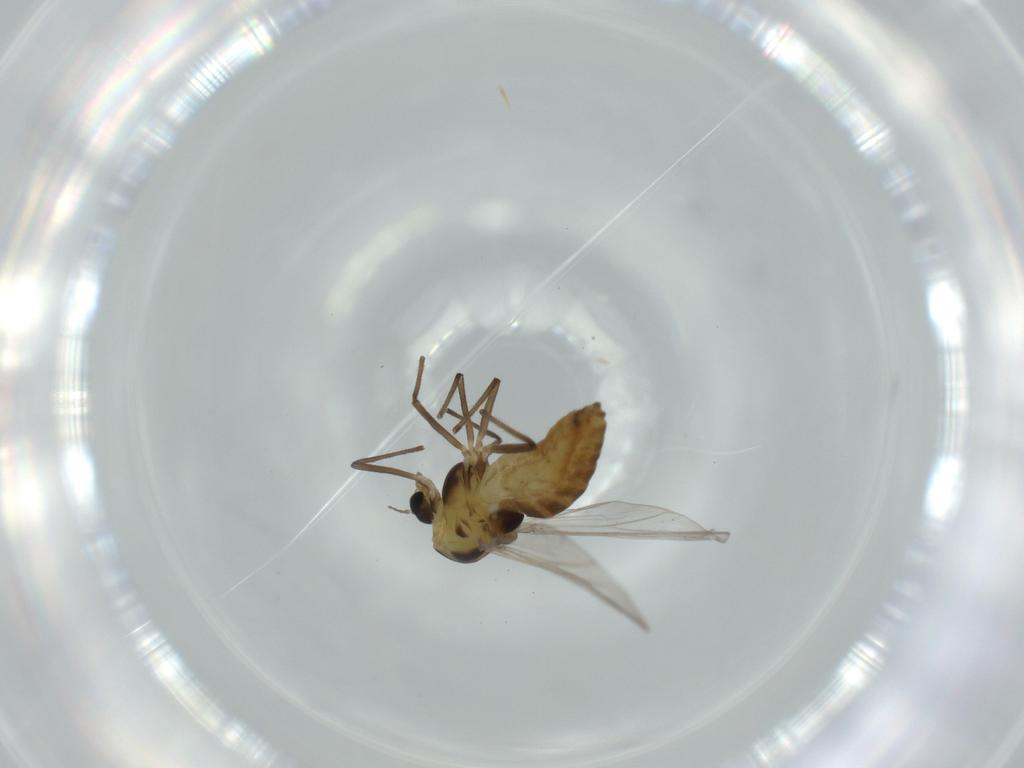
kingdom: Animalia
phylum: Arthropoda
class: Insecta
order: Diptera
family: Chironomidae
